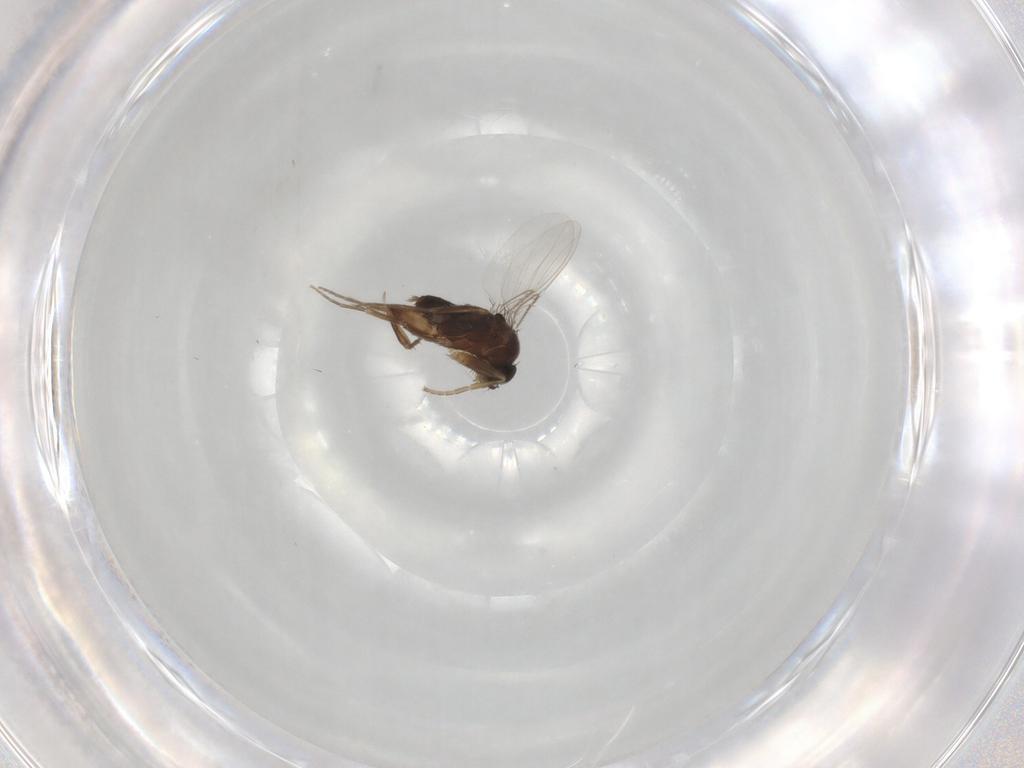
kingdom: Animalia
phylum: Arthropoda
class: Insecta
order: Diptera
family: Phoridae
